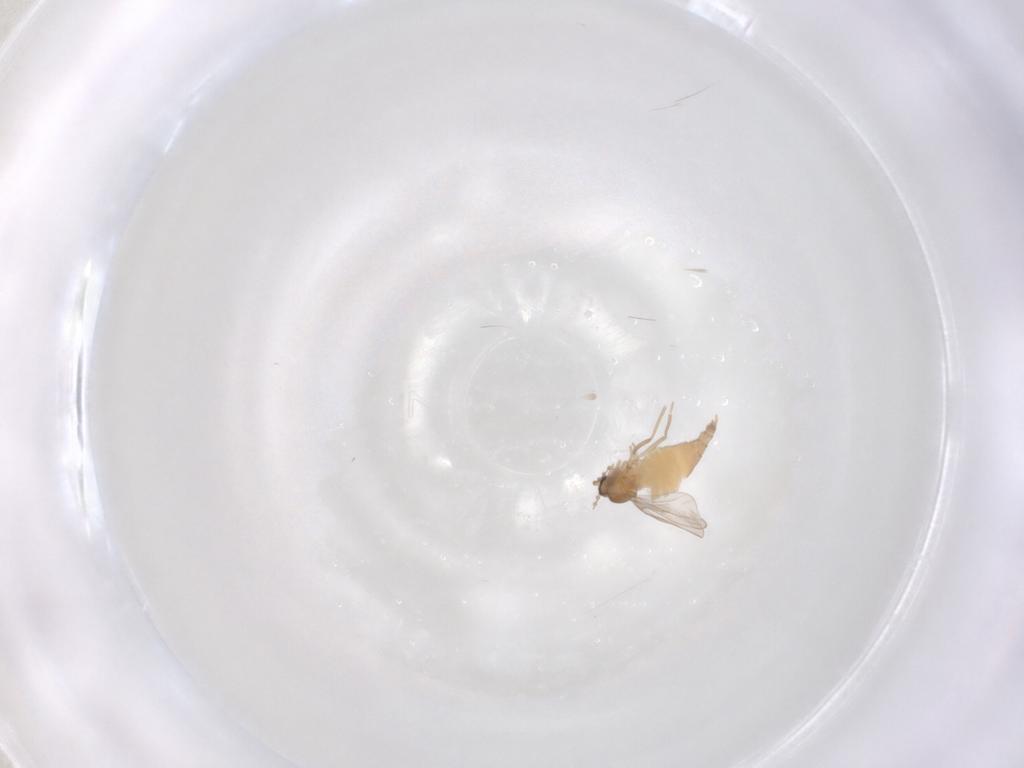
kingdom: Animalia
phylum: Arthropoda
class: Insecta
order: Diptera
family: Cecidomyiidae
